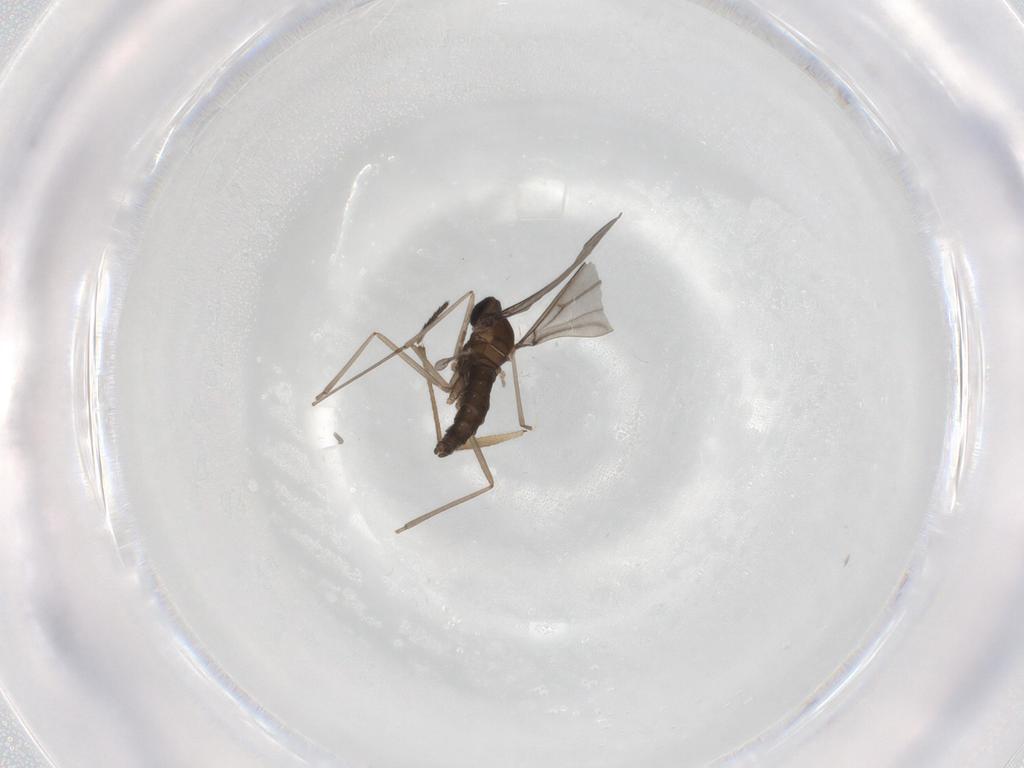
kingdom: Animalia
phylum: Arthropoda
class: Insecta
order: Diptera
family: Cecidomyiidae
